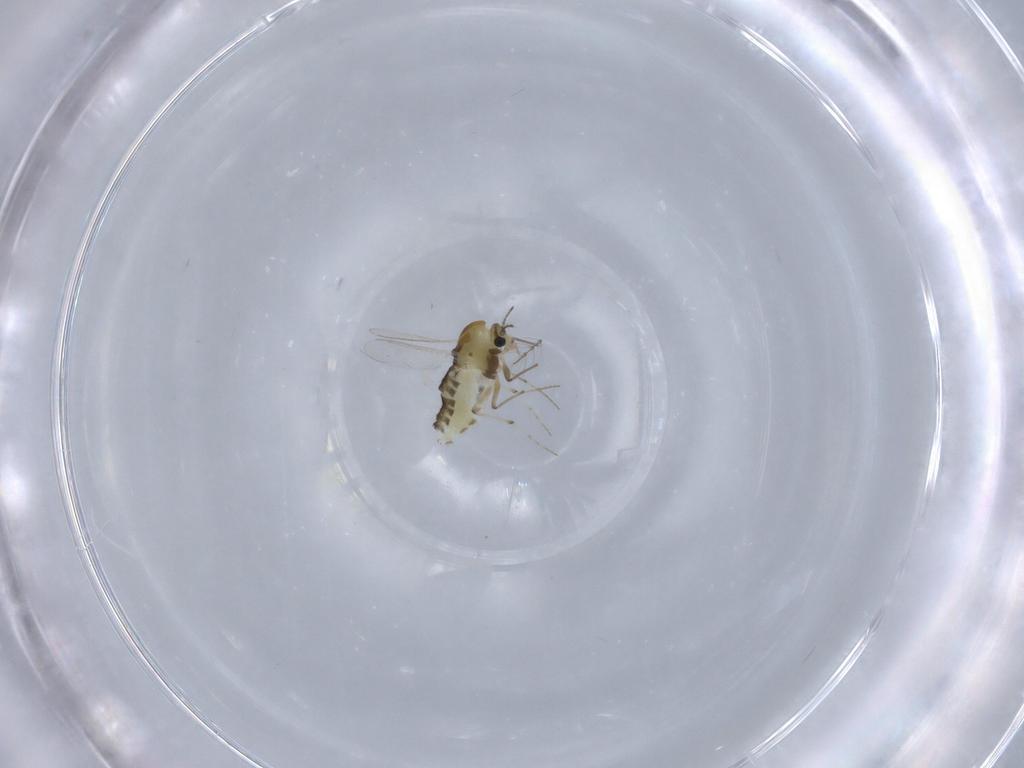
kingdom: Animalia
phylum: Arthropoda
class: Insecta
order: Diptera
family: Chironomidae
